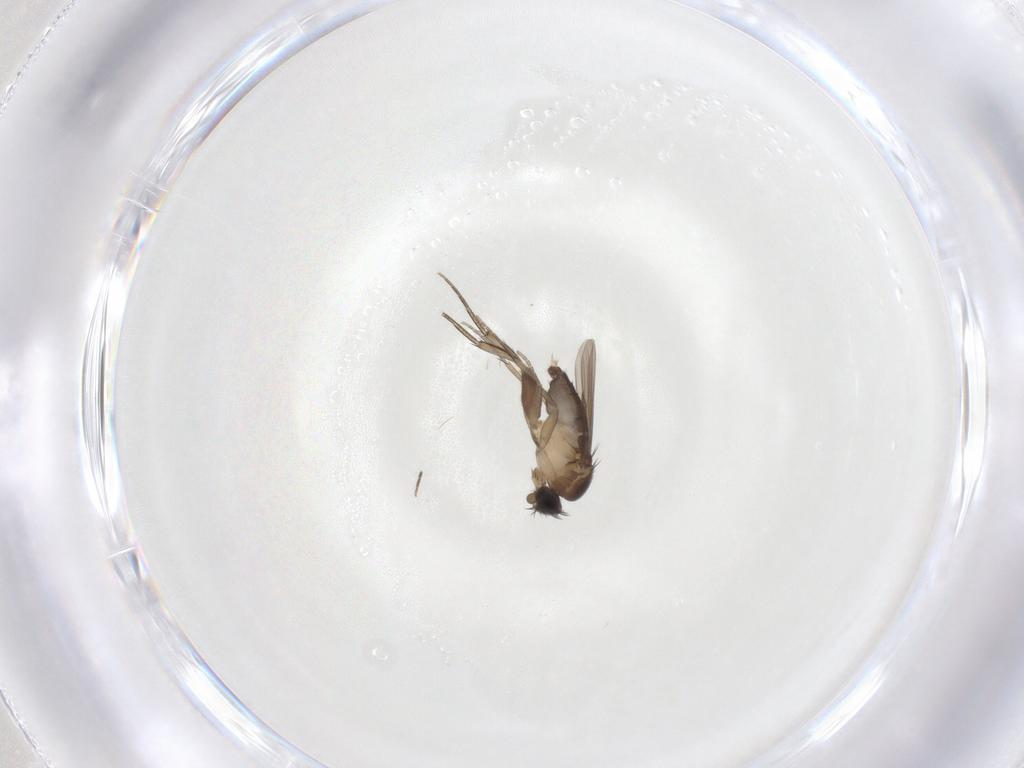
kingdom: Animalia
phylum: Arthropoda
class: Insecta
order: Diptera
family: Phoridae
